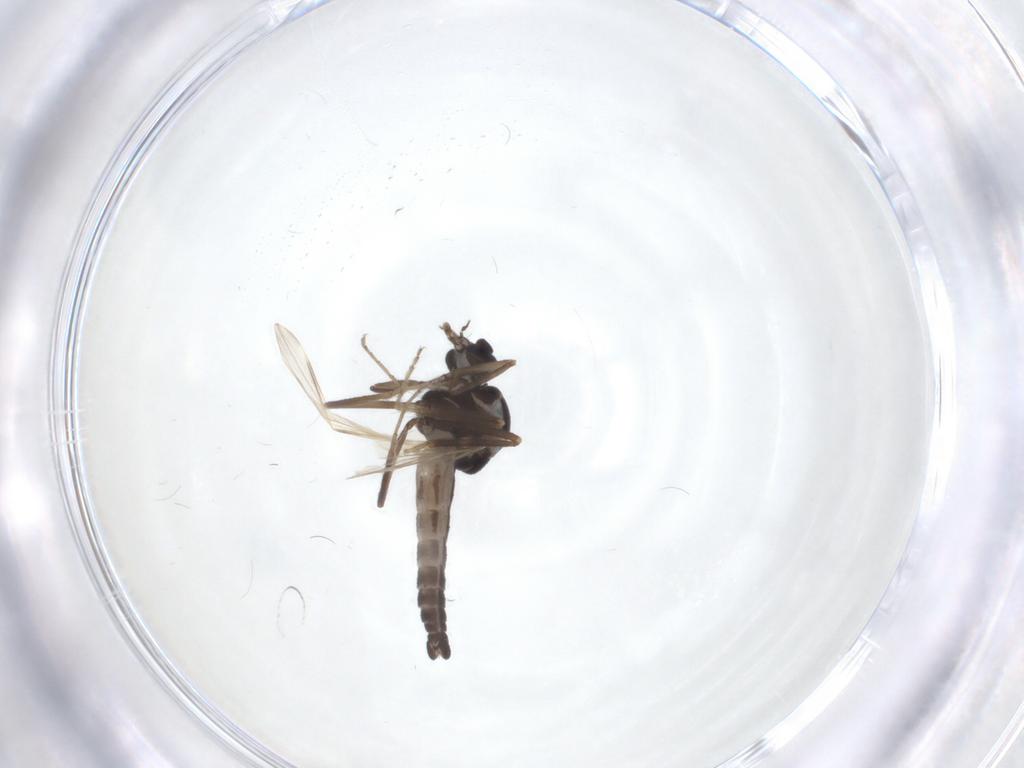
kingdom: Animalia
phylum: Arthropoda
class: Insecta
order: Diptera
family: Ceratopogonidae
